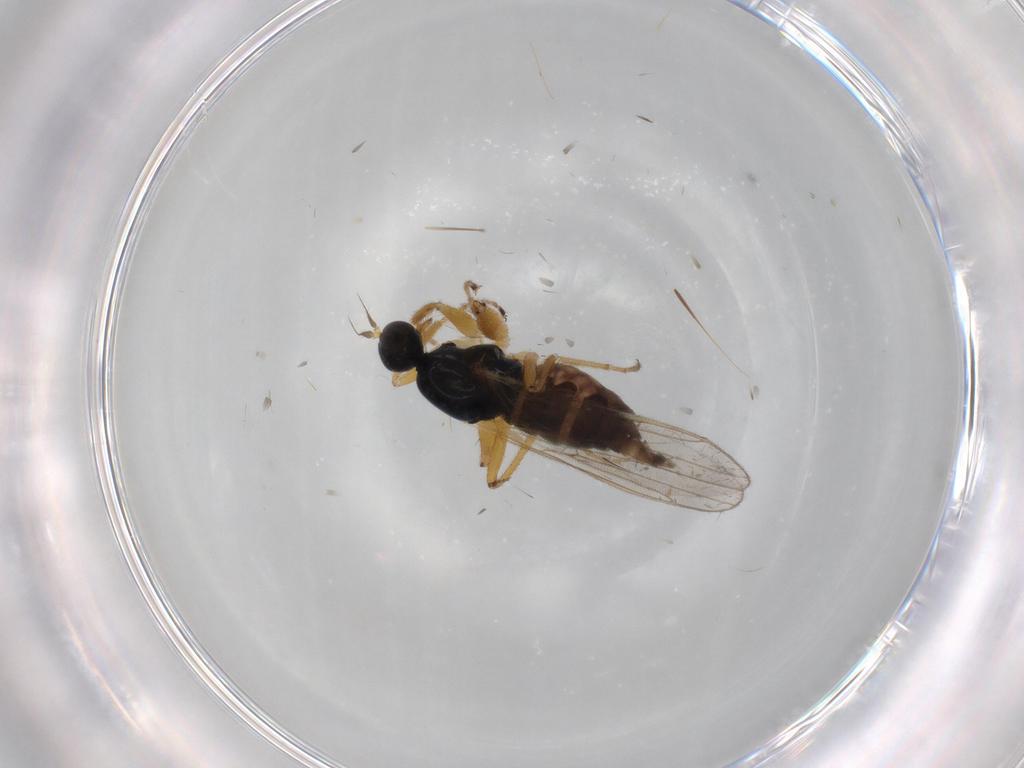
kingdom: Animalia
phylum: Arthropoda
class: Insecta
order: Diptera
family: Hybotidae
